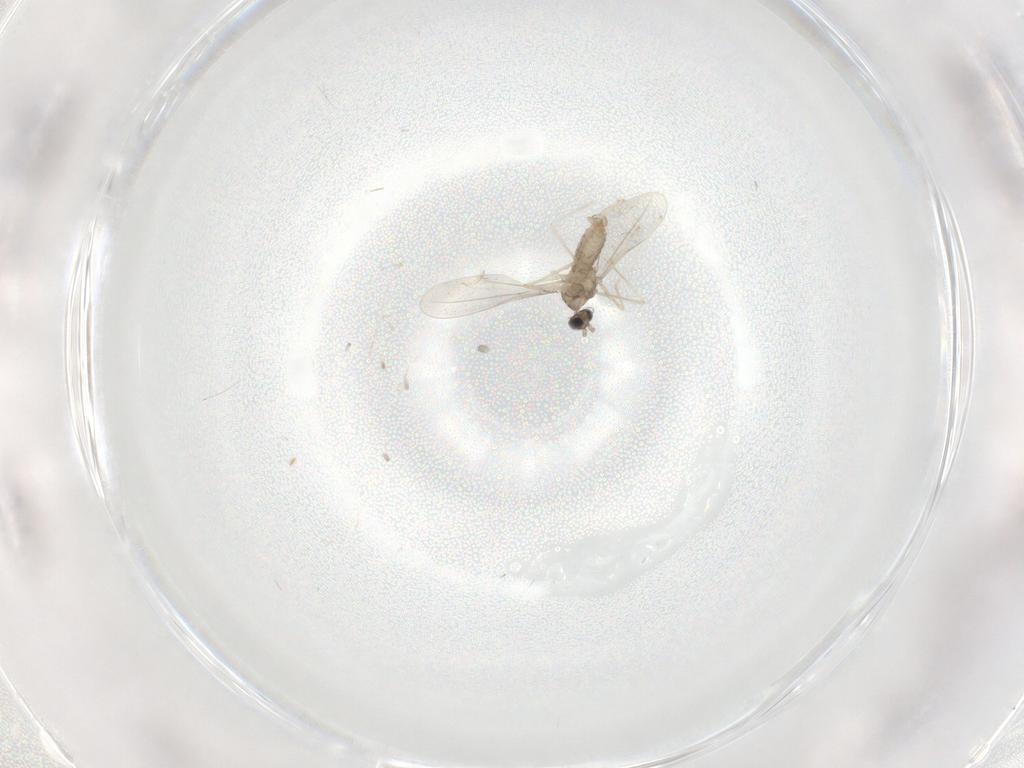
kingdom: Animalia
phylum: Arthropoda
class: Insecta
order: Diptera
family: Cecidomyiidae
